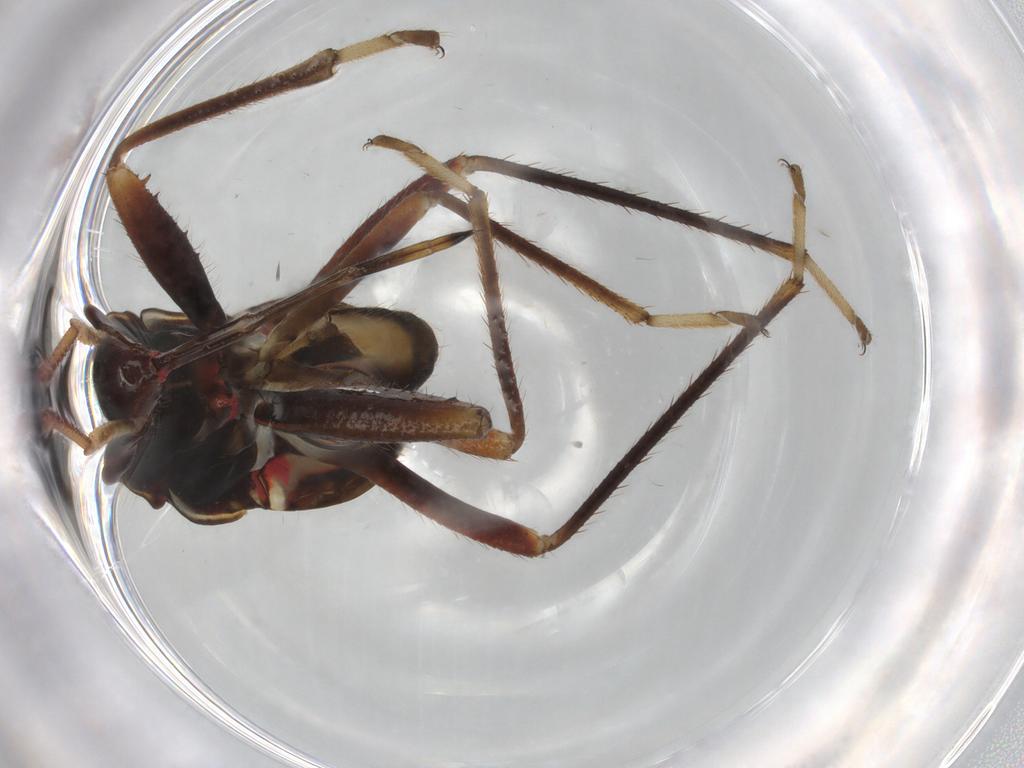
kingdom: Animalia
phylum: Arthropoda
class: Insecta
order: Hemiptera
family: Rhyparochromidae
